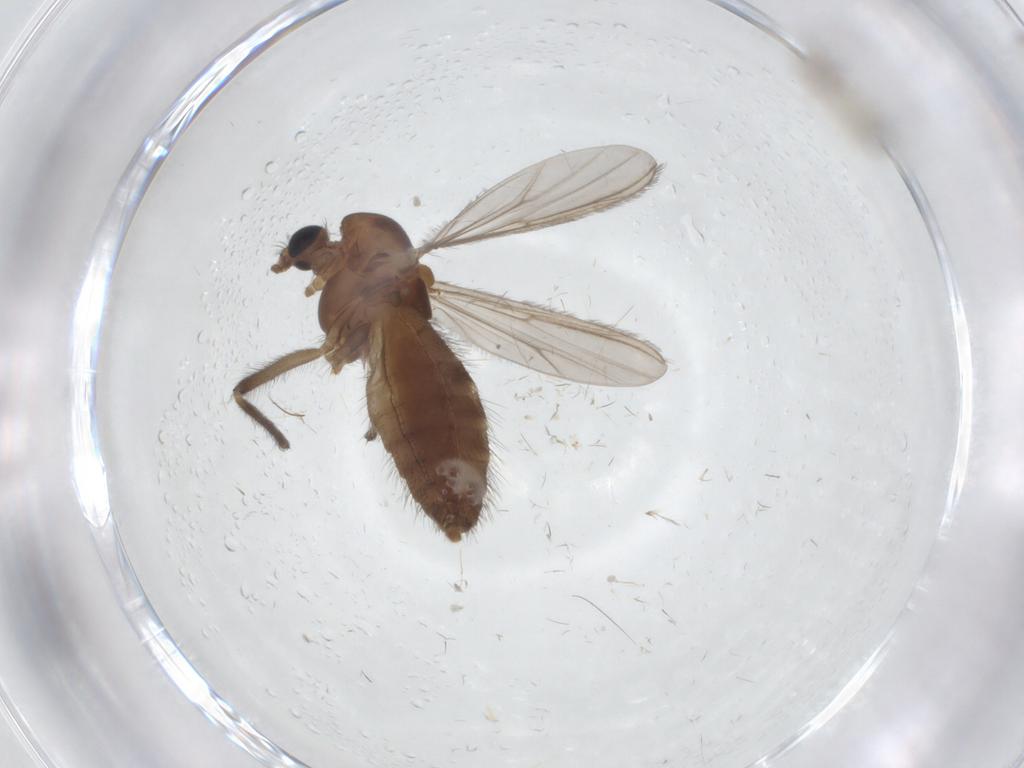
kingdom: Animalia
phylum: Arthropoda
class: Insecta
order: Diptera
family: Chironomidae
